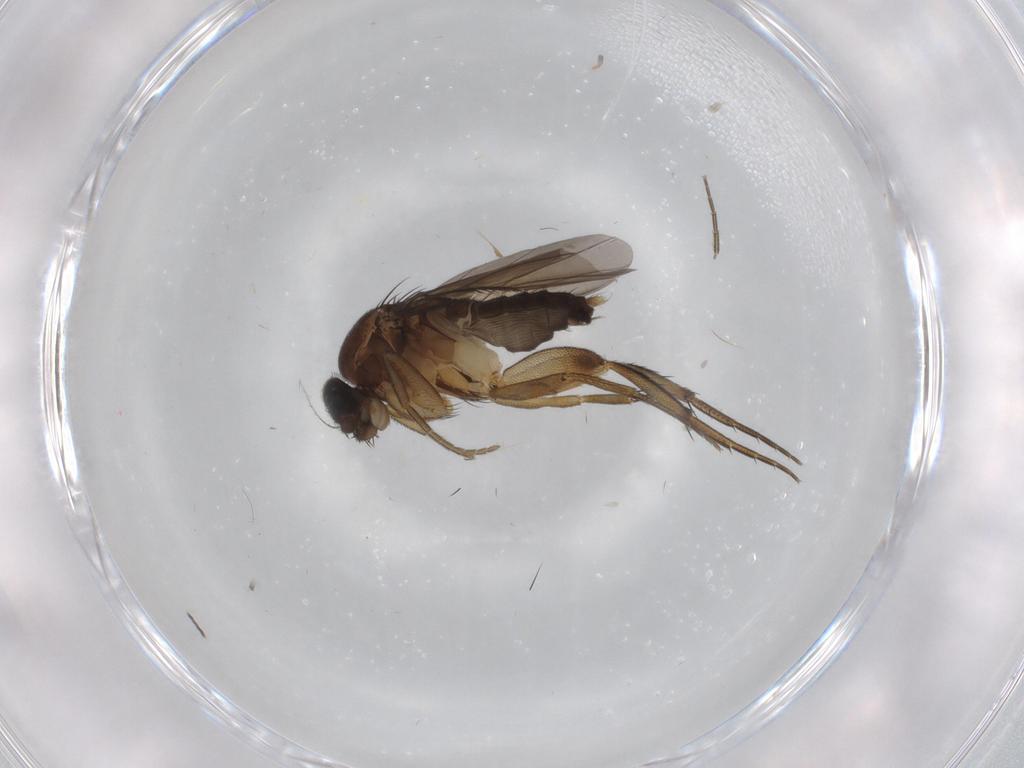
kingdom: Animalia
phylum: Arthropoda
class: Insecta
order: Diptera
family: Phoridae
